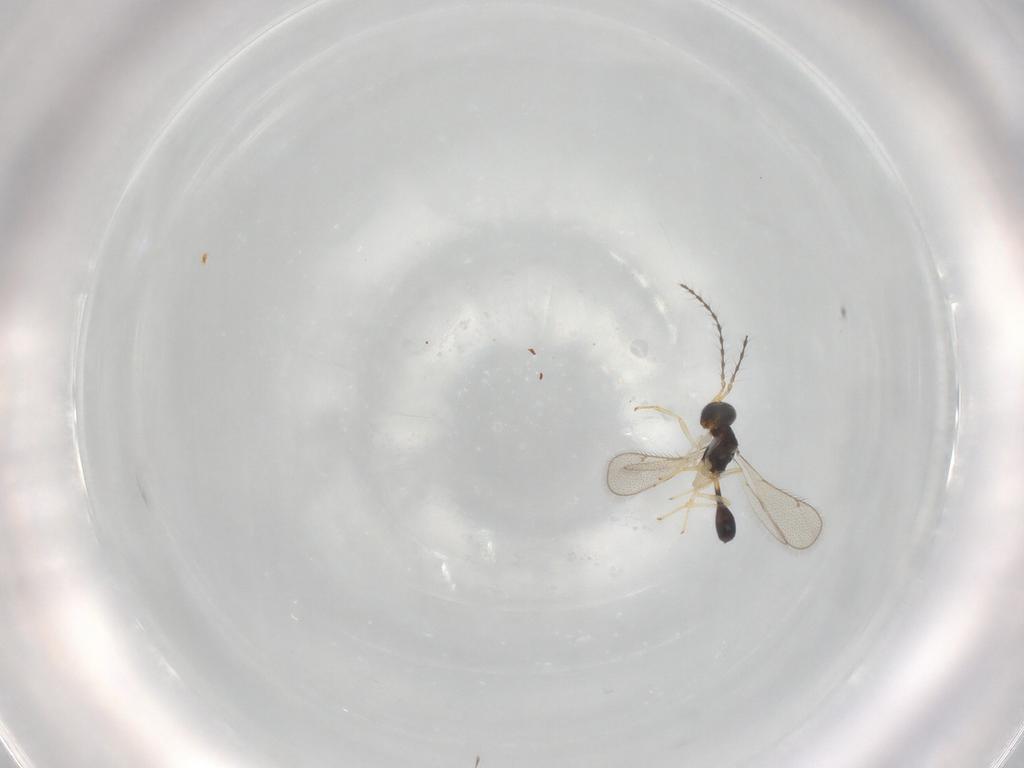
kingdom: Animalia
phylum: Arthropoda
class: Insecta
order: Hymenoptera
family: Diparidae
